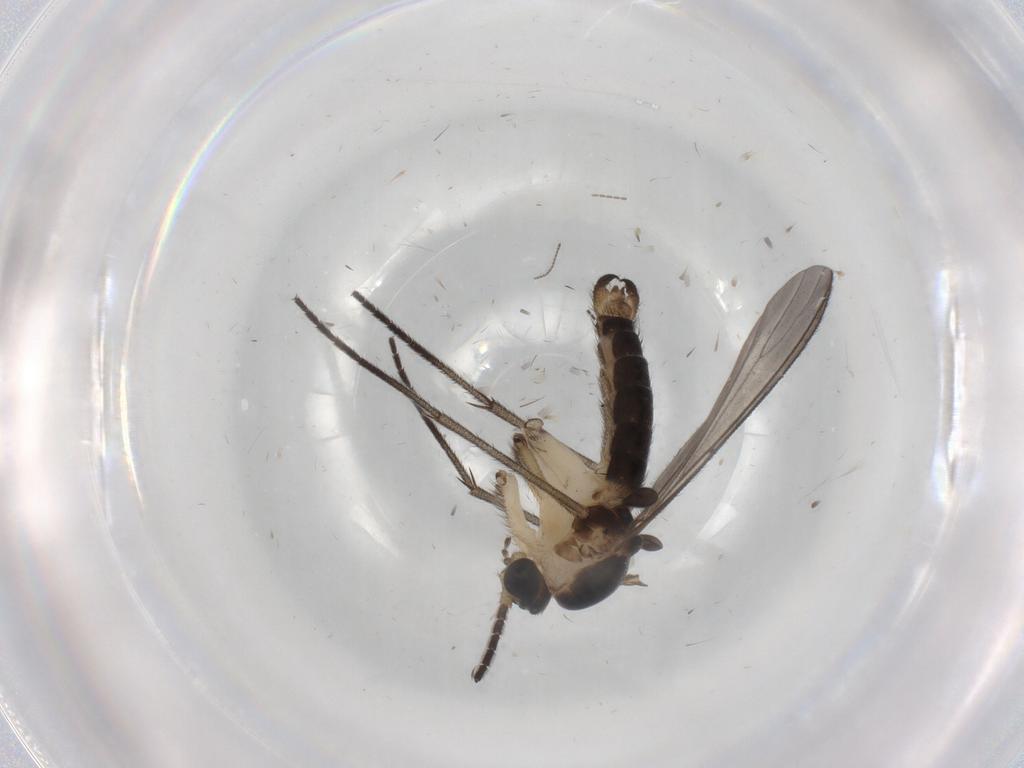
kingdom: Animalia
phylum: Arthropoda
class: Insecta
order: Diptera
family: Sciaridae
